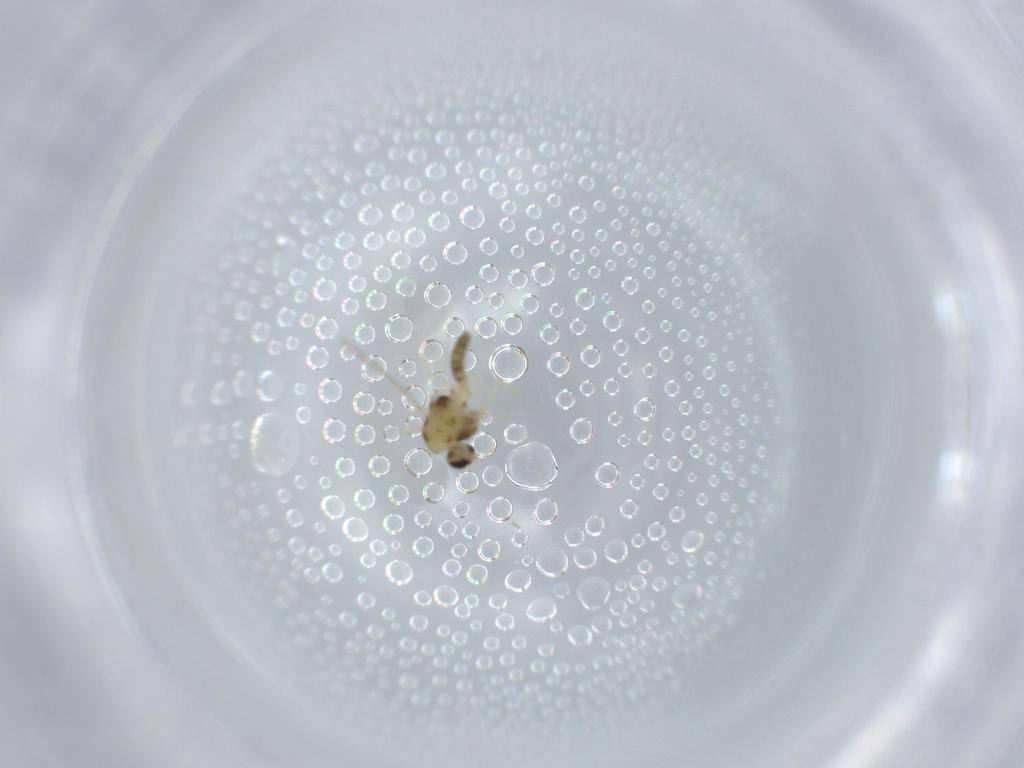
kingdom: Animalia
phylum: Arthropoda
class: Insecta
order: Diptera
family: Chironomidae
